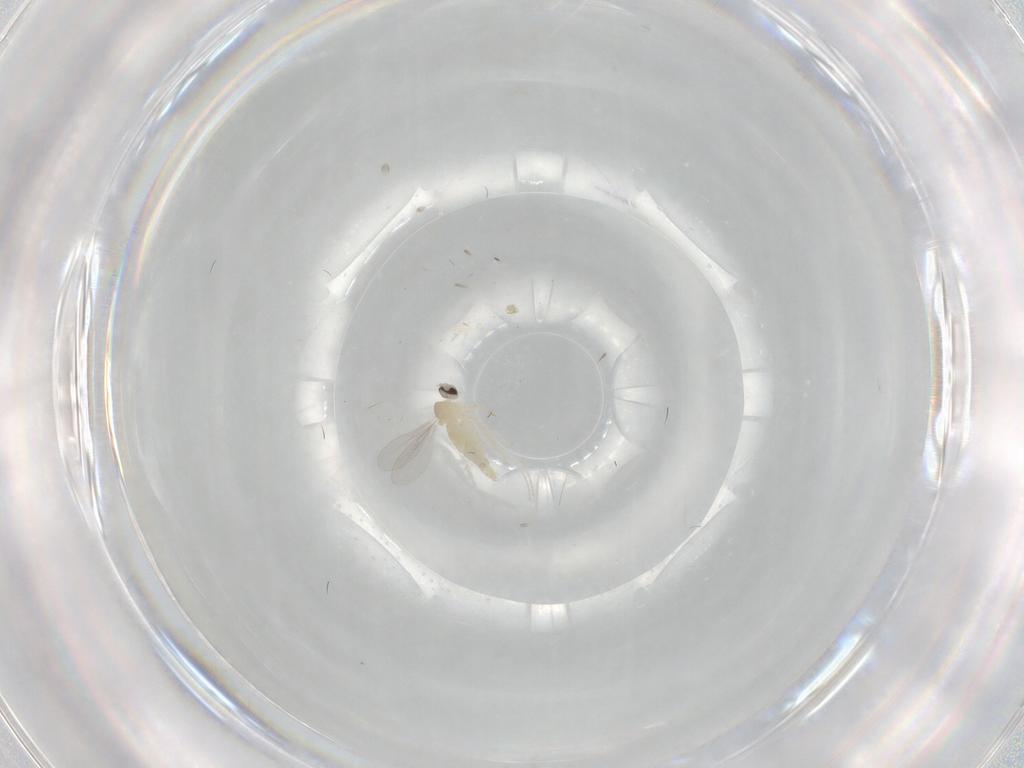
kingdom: Animalia
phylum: Arthropoda
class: Insecta
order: Diptera
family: Cecidomyiidae
